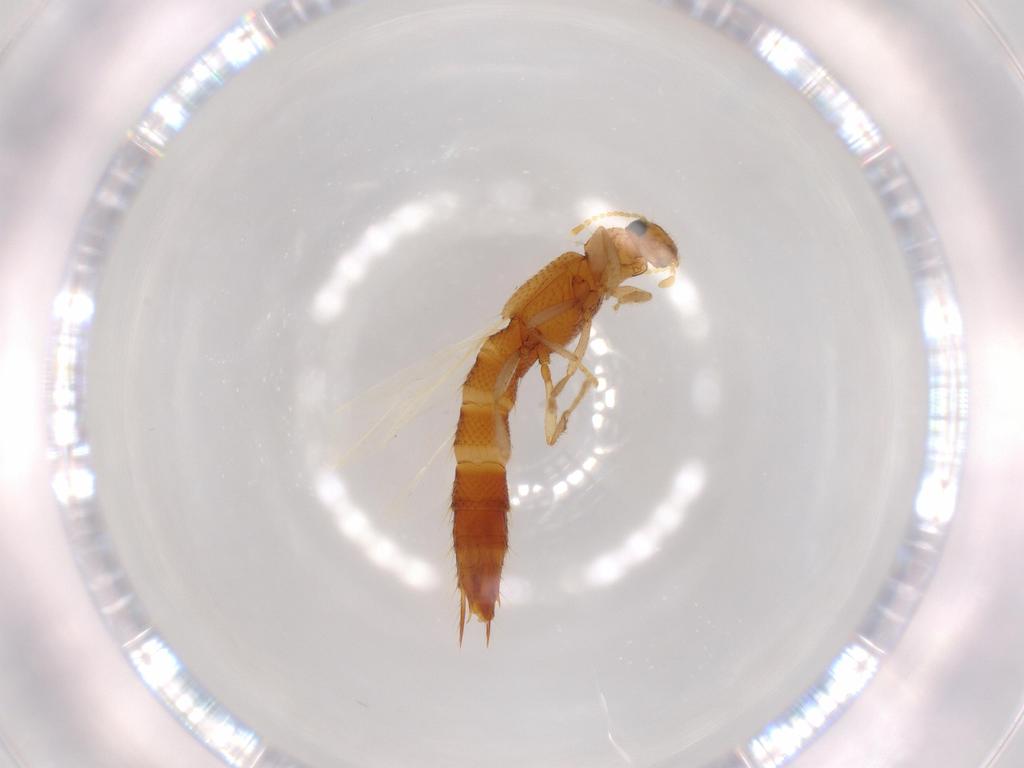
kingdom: Animalia
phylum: Arthropoda
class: Insecta
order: Coleoptera
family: Staphylinidae
